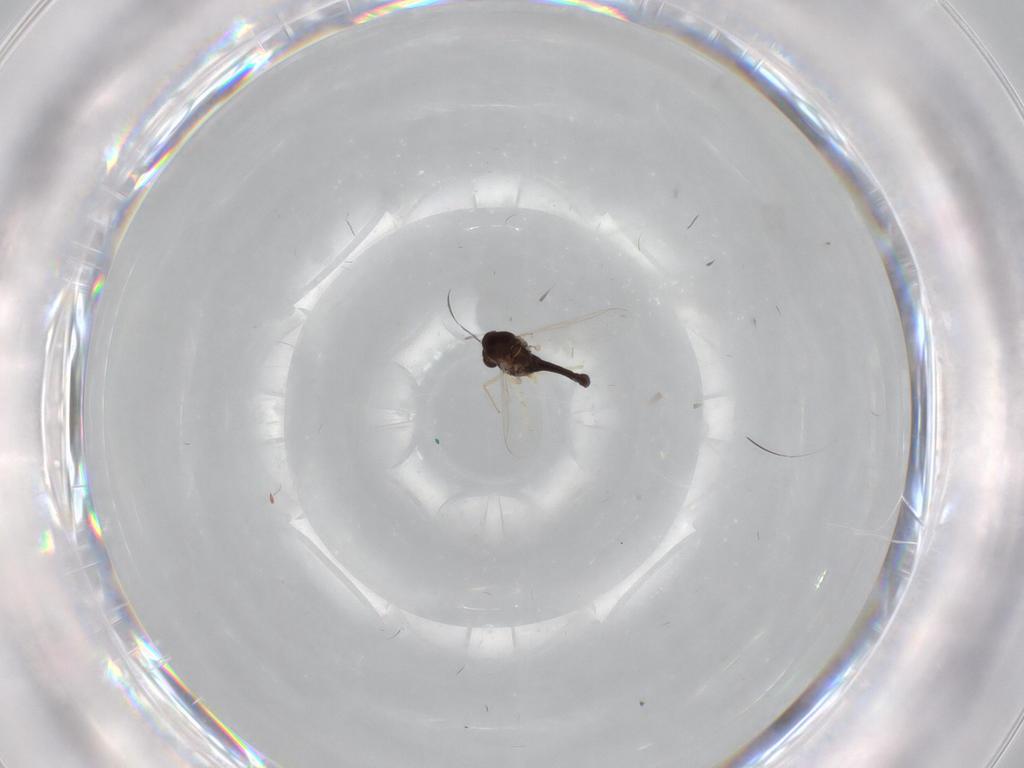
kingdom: Animalia
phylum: Arthropoda
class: Insecta
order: Diptera
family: Chironomidae
